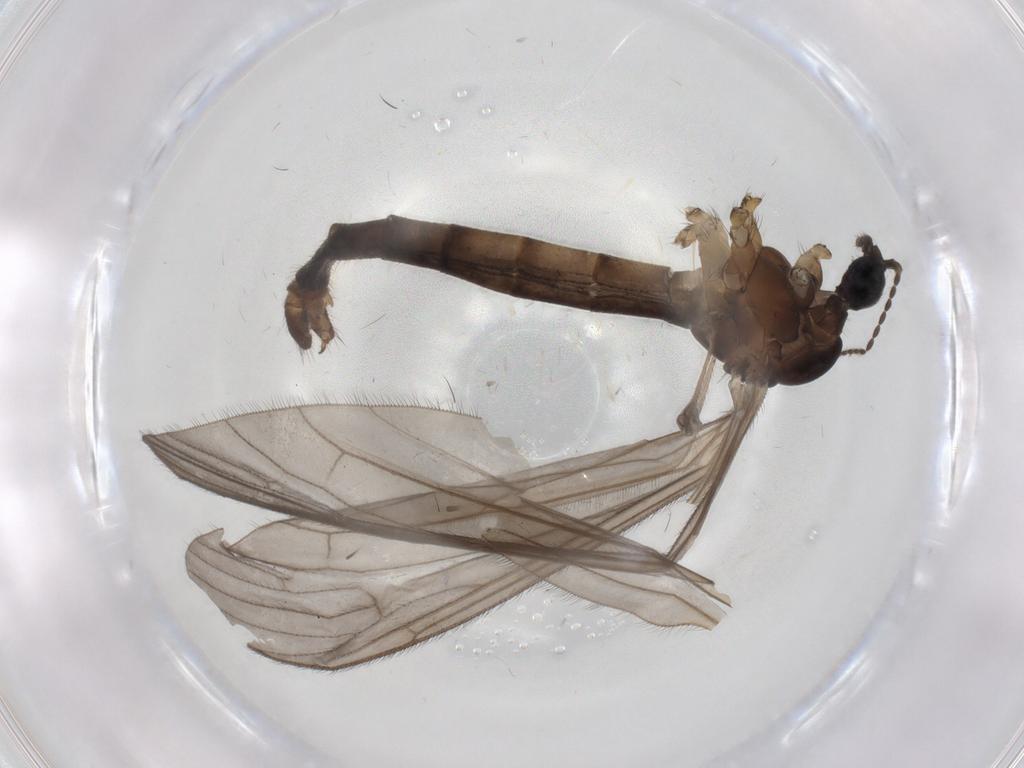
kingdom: Animalia
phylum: Arthropoda
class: Insecta
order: Diptera
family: Limoniidae
